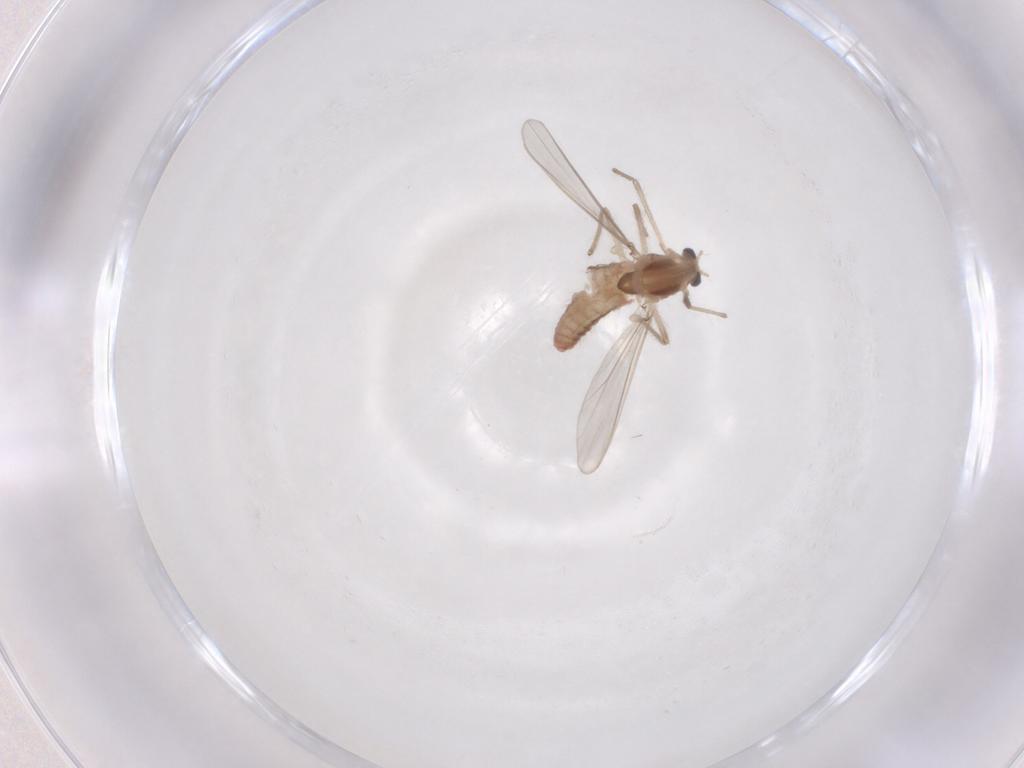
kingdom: Animalia
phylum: Arthropoda
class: Insecta
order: Diptera
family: Chironomidae
